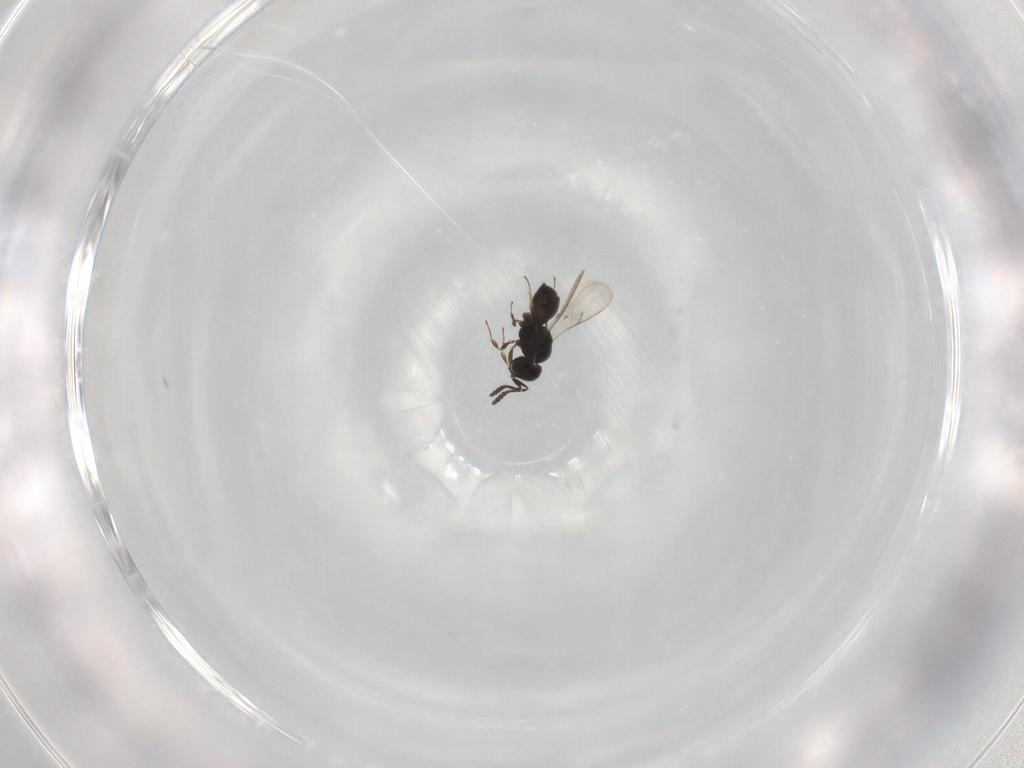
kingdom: Animalia
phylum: Arthropoda
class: Insecta
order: Hymenoptera
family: Scelionidae
